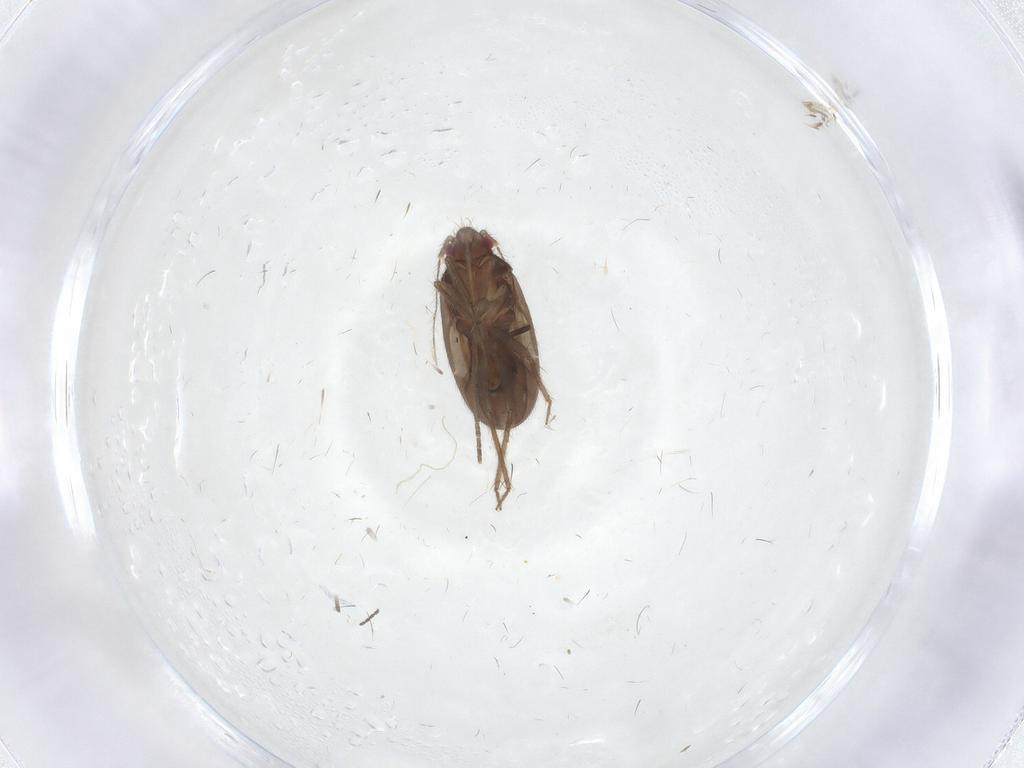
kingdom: Animalia
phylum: Arthropoda
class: Insecta
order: Hemiptera
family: Ceratocombidae
